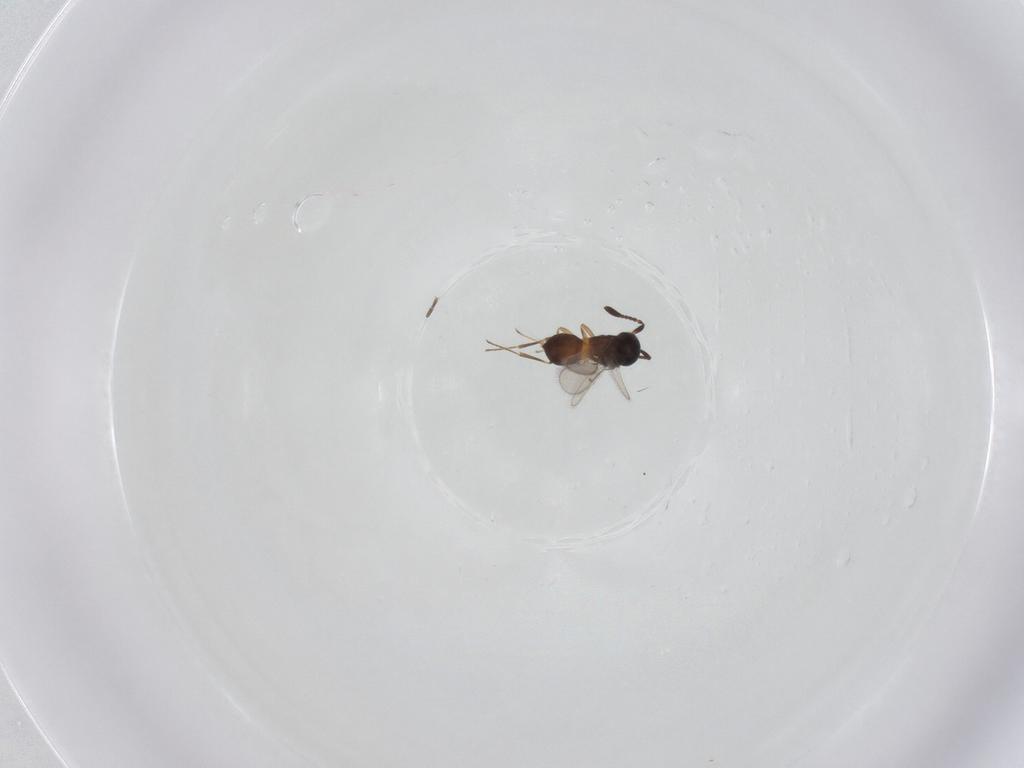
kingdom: Animalia
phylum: Arthropoda
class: Insecta
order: Hymenoptera
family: Scelionidae
